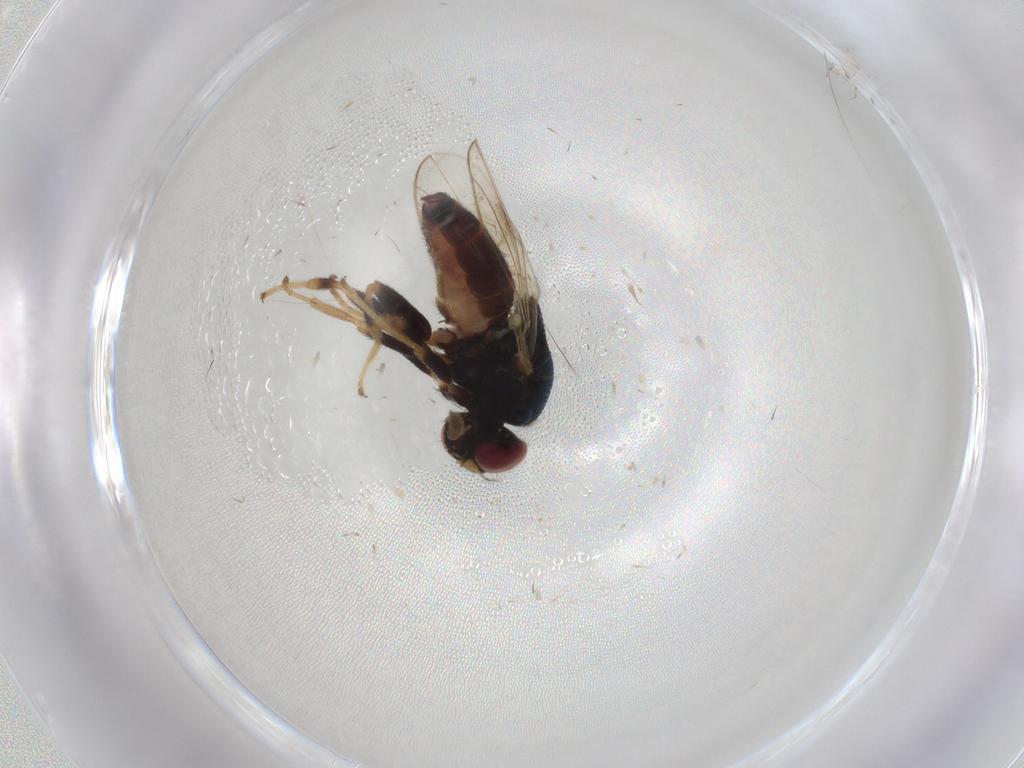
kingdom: Animalia
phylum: Arthropoda
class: Insecta
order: Diptera
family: Chloropidae
